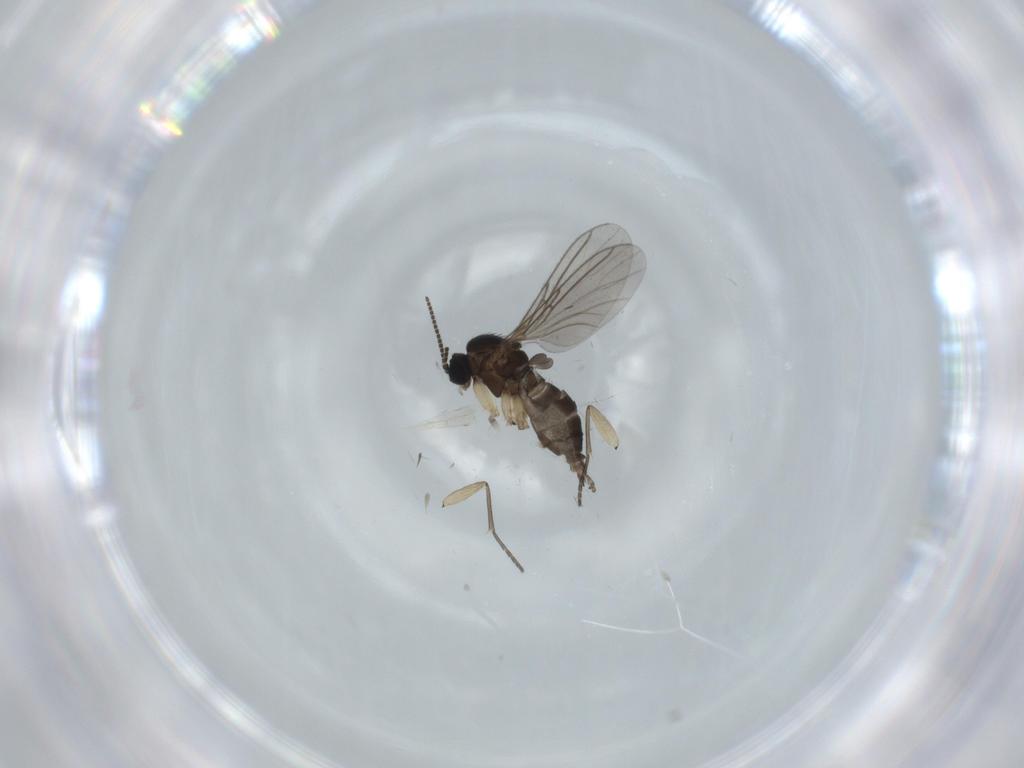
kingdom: Animalia
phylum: Arthropoda
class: Insecta
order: Diptera
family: Sciaridae
